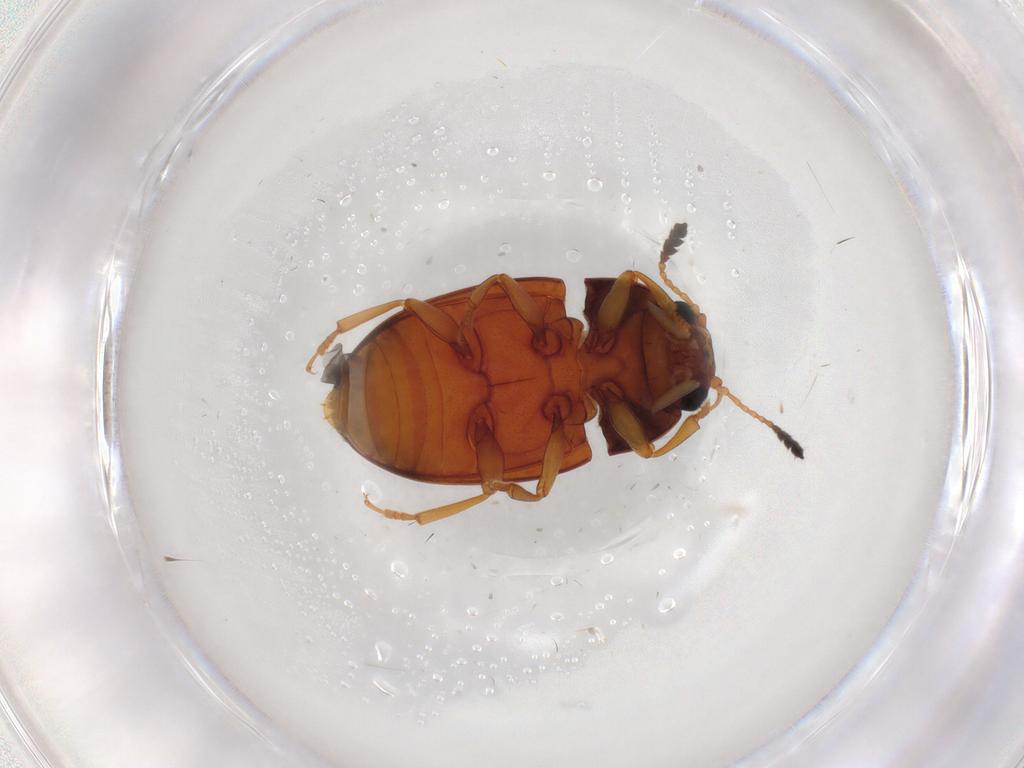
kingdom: Animalia
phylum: Arthropoda
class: Insecta
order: Coleoptera
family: Erotylidae
